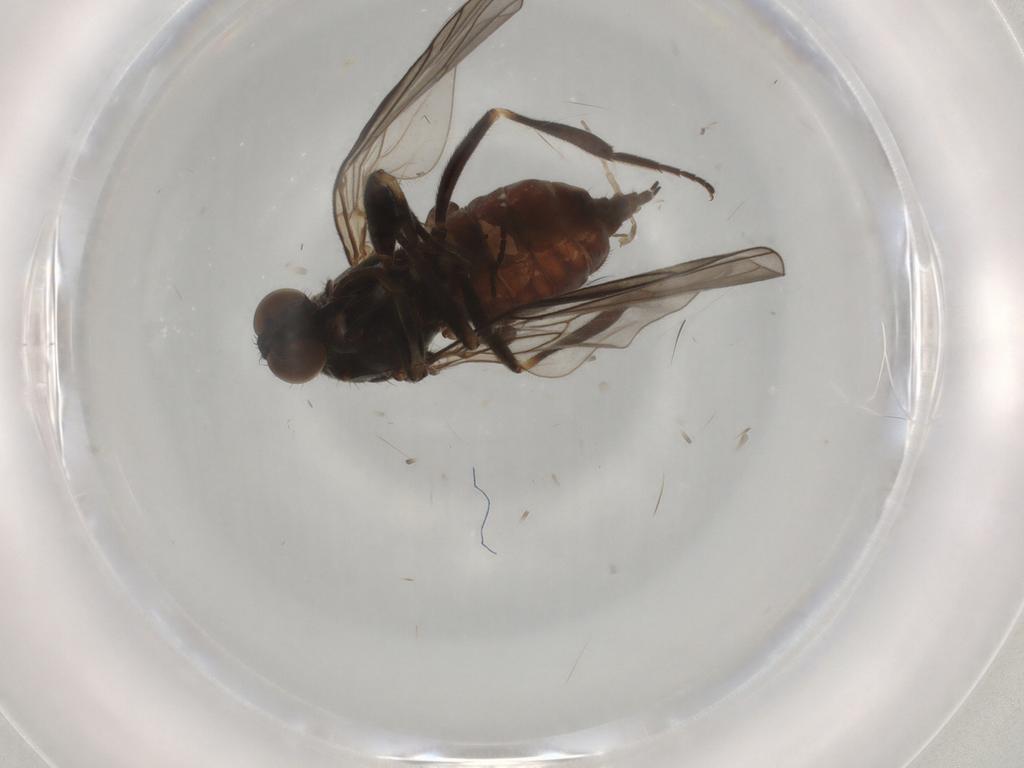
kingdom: Animalia
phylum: Arthropoda
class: Insecta
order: Diptera
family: Empididae
